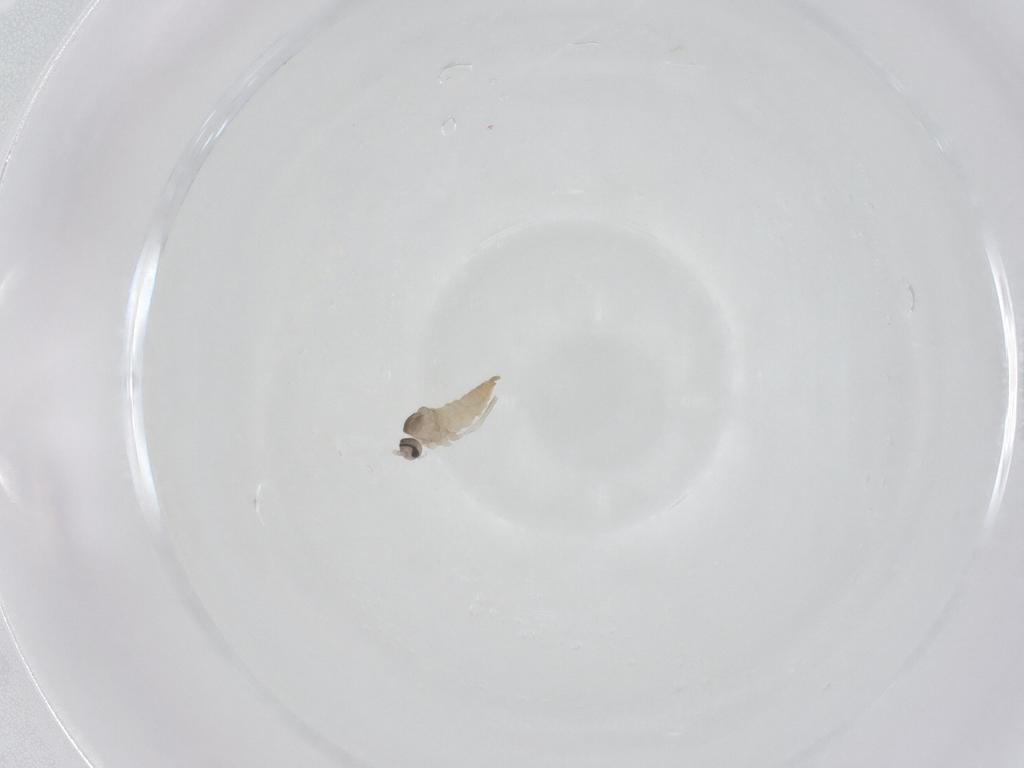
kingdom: Animalia
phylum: Arthropoda
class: Insecta
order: Diptera
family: Cecidomyiidae
